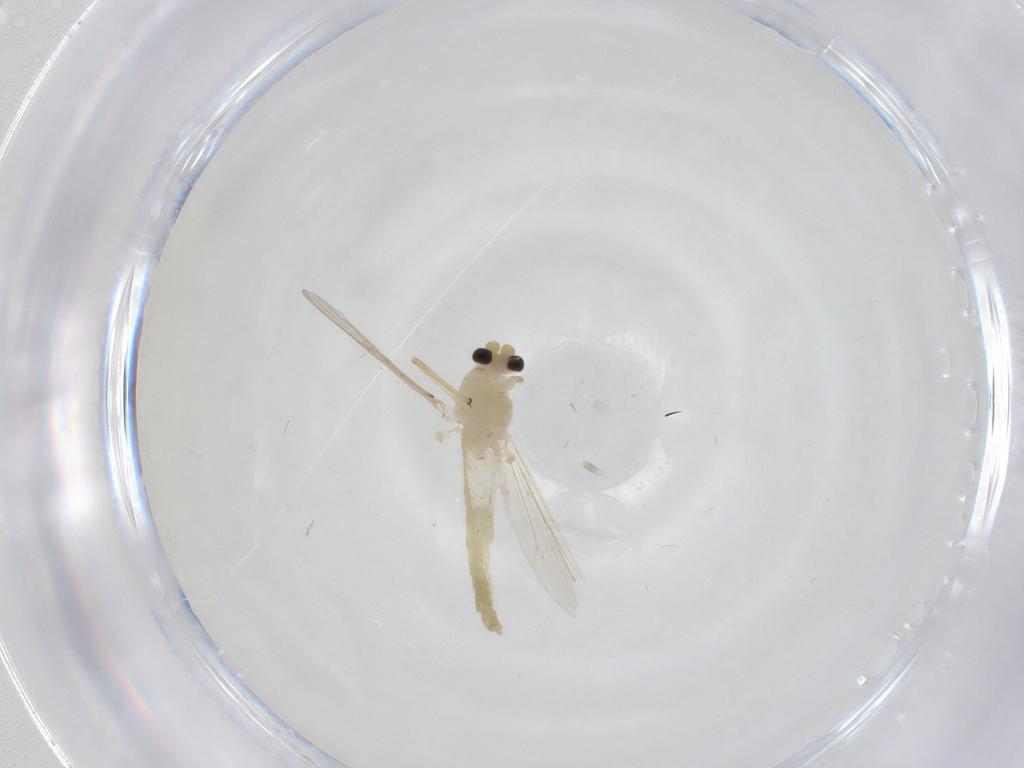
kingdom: Animalia
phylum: Arthropoda
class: Insecta
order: Diptera
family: Chironomidae
